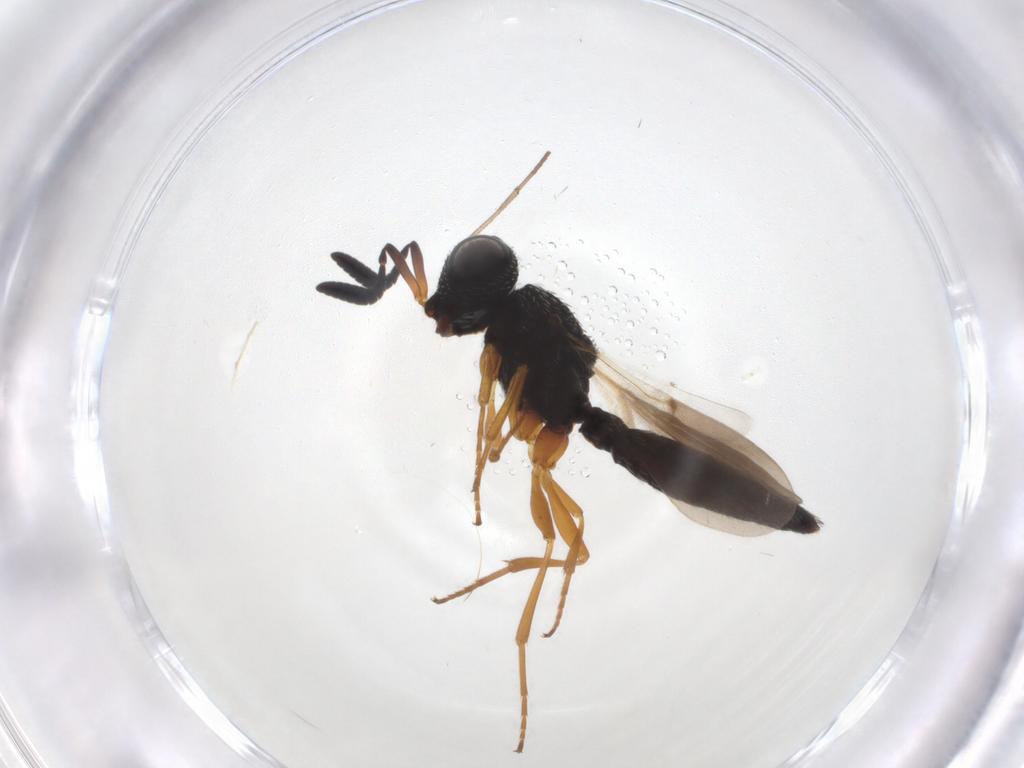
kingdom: Animalia
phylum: Arthropoda
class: Insecta
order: Hymenoptera
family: Scelionidae
